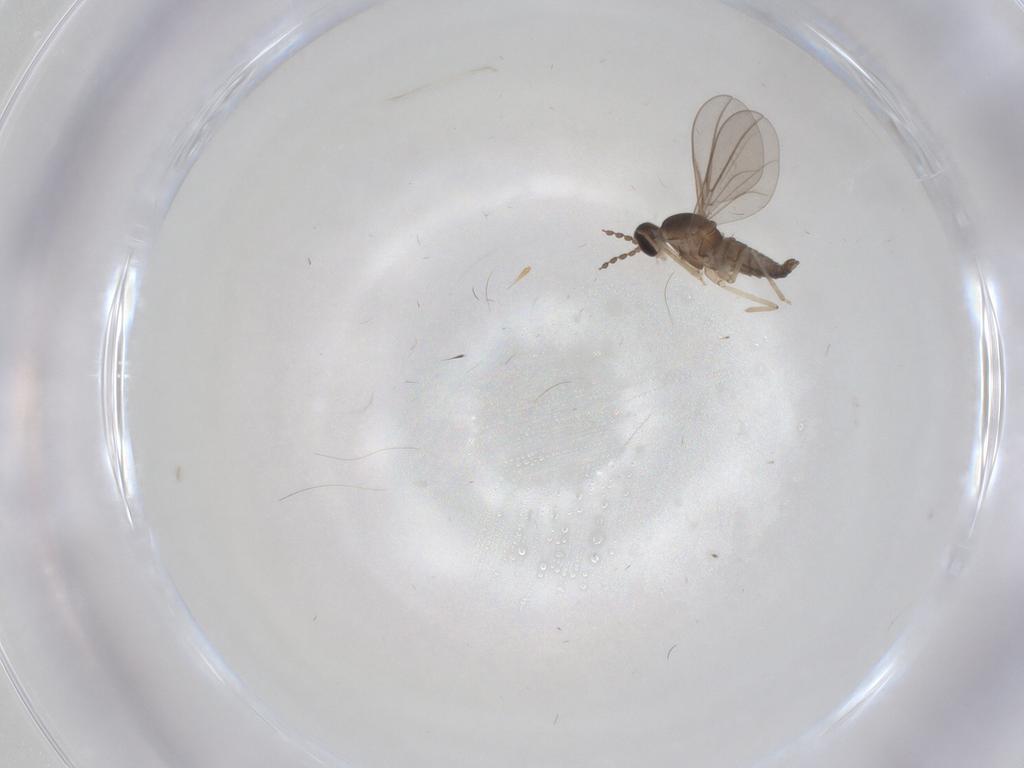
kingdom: Animalia
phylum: Arthropoda
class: Insecta
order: Diptera
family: Cecidomyiidae
